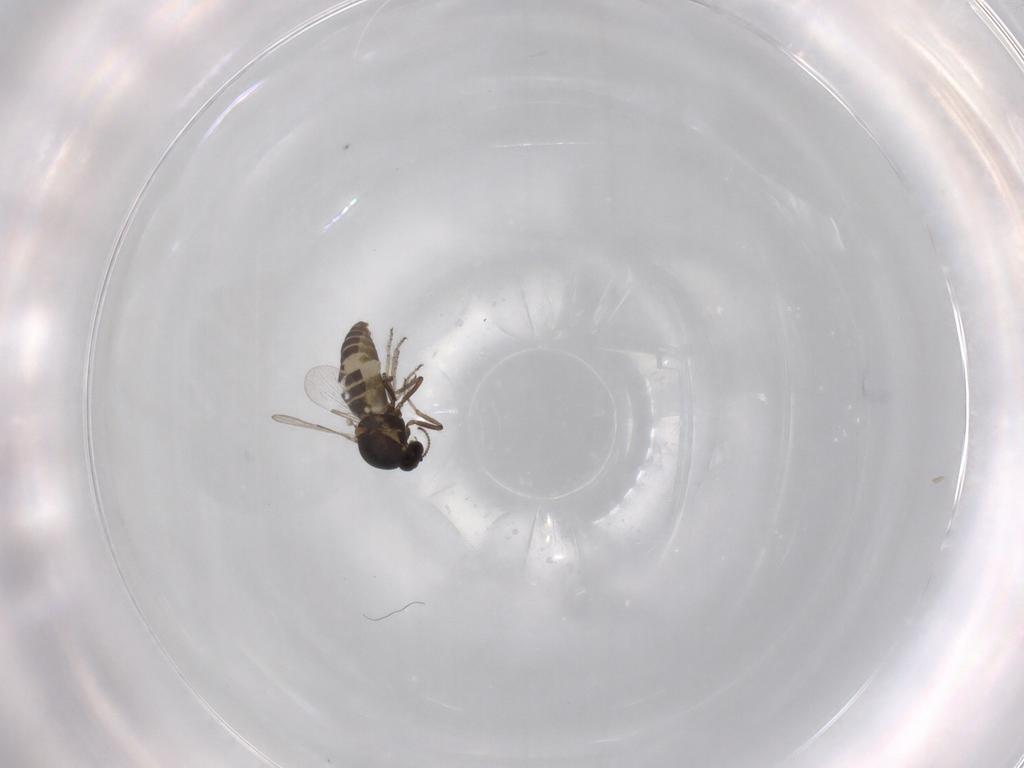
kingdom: Animalia
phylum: Arthropoda
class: Insecta
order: Diptera
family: Ceratopogonidae
